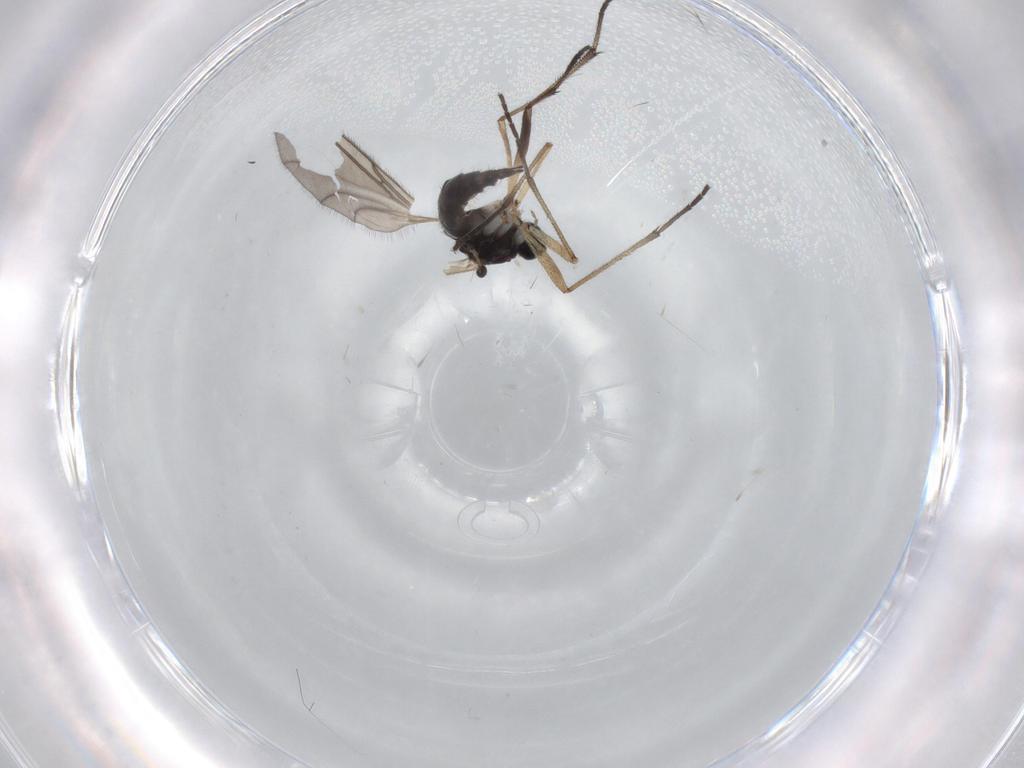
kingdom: Animalia
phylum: Arthropoda
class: Insecta
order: Diptera
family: Sciaridae
